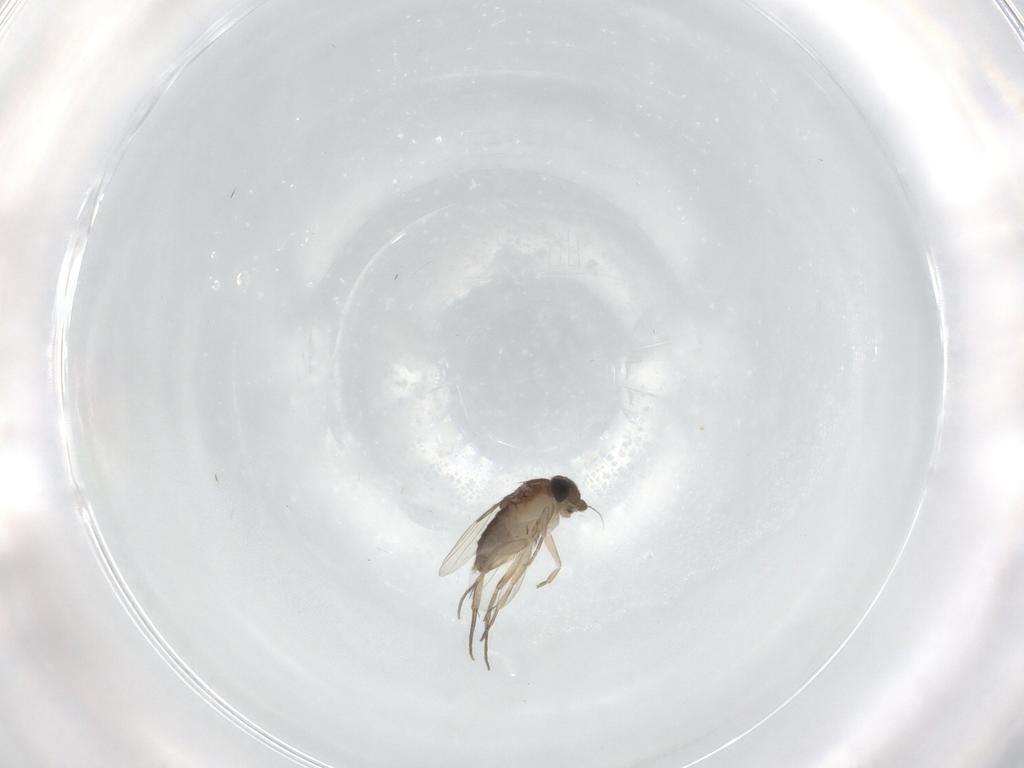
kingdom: Animalia
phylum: Arthropoda
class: Insecta
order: Diptera
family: Phoridae
